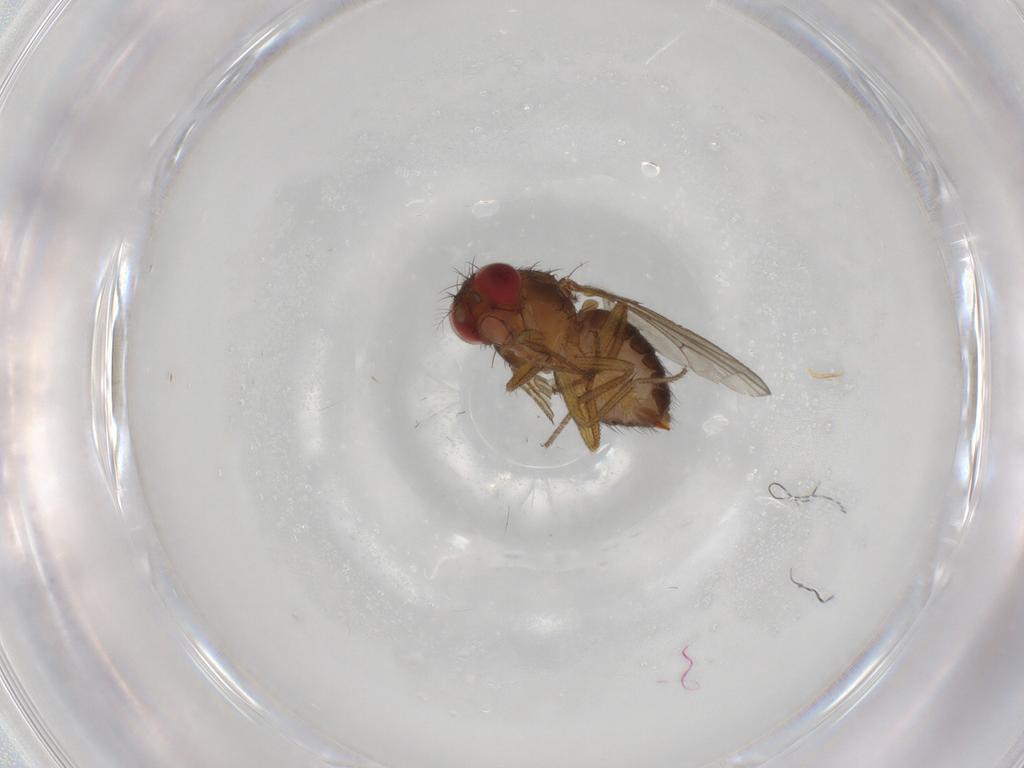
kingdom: Animalia
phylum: Arthropoda
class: Insecta
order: Diptera
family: Drosophilidae
